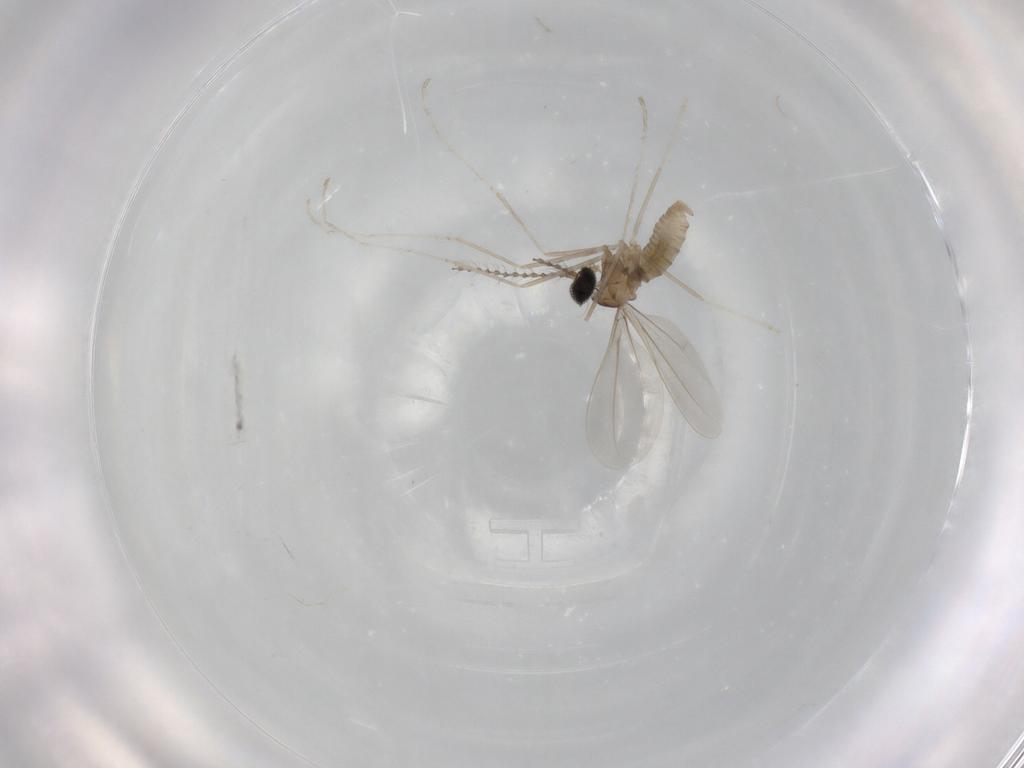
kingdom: Animalia
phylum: Arthropoda
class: Insecta
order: Diptera
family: Cecidomyiidae
